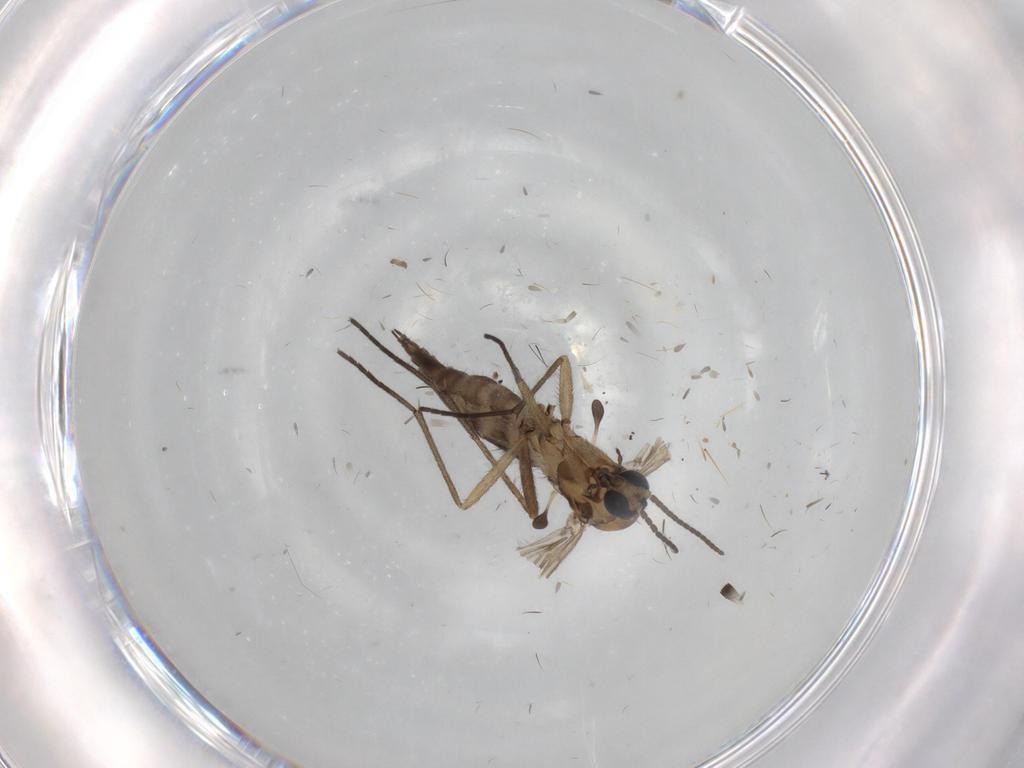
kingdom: Animalia
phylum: Arthropoda
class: Insecta
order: Diptera
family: Sciaridae
